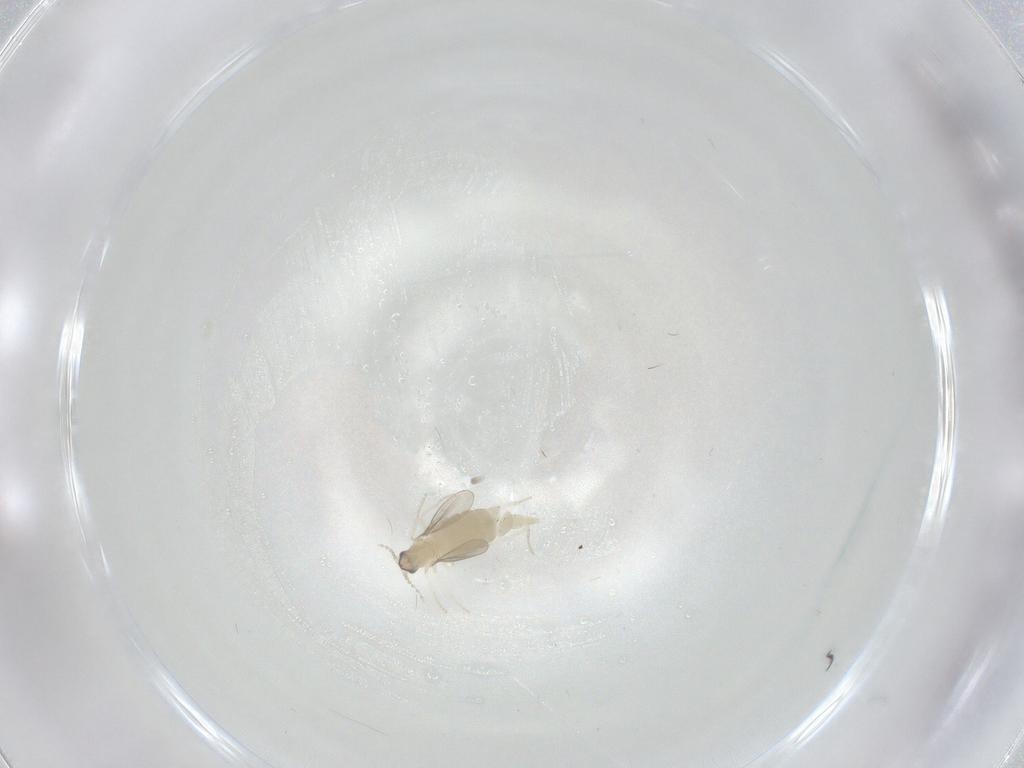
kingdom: Animalia
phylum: Arthropoda
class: Insecta
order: Diptera
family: Cecidomyiidae
